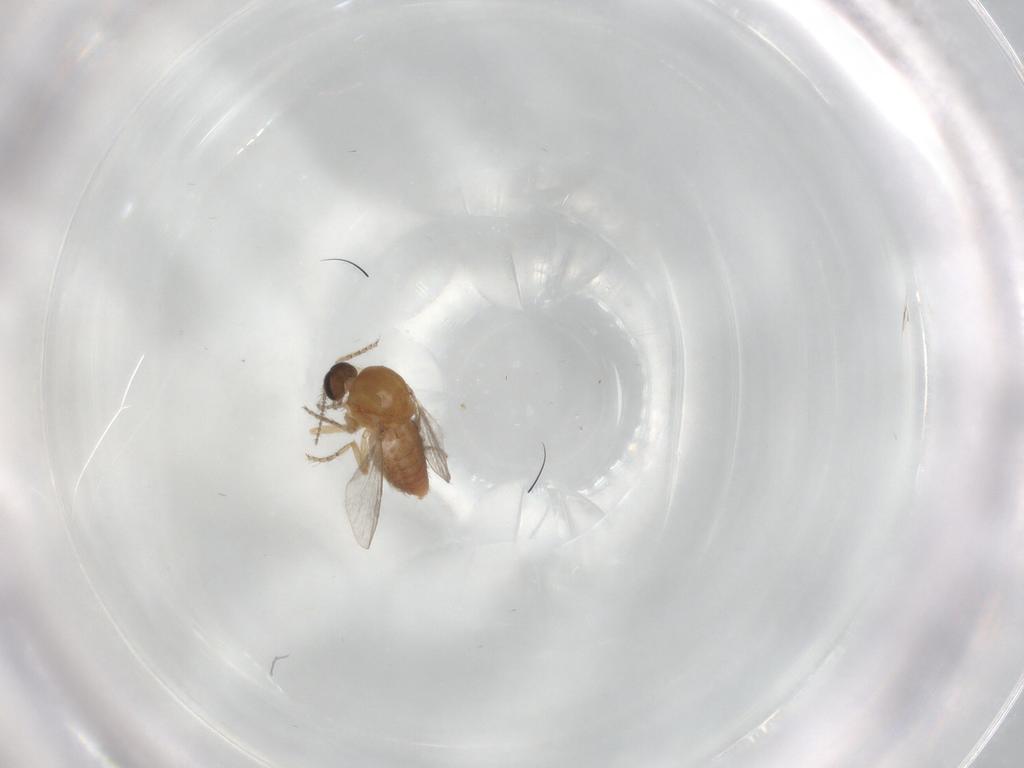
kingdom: Animalia
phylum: Arthropoda
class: Insecta
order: Diptera
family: Ceratopogonidae
